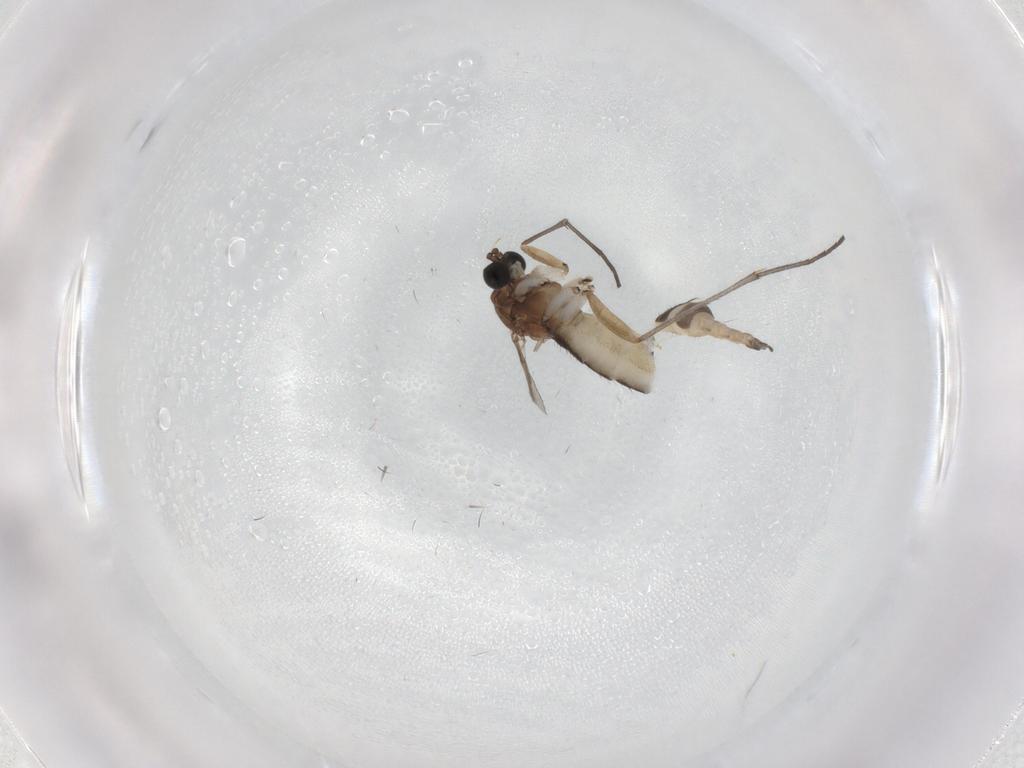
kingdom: Animalia
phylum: Arthropoda
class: Insecta
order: Diptera
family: Sciaridae
